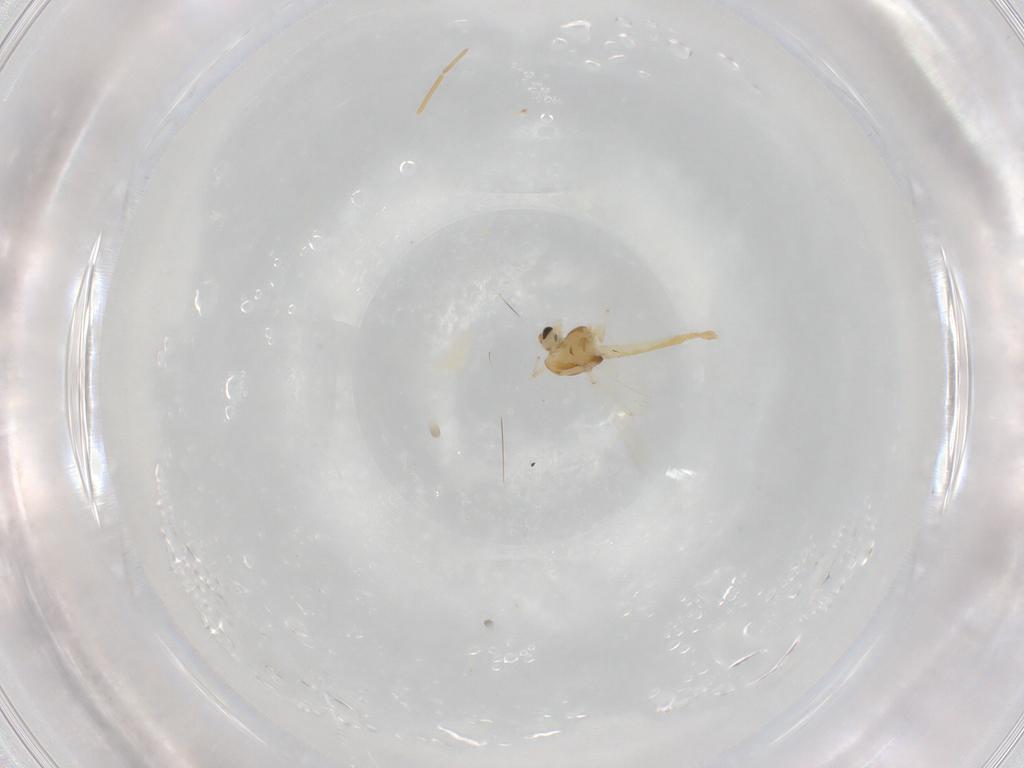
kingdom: Animalia
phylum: Arthropoda
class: Insecta
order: Diptera
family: Chironomidae
